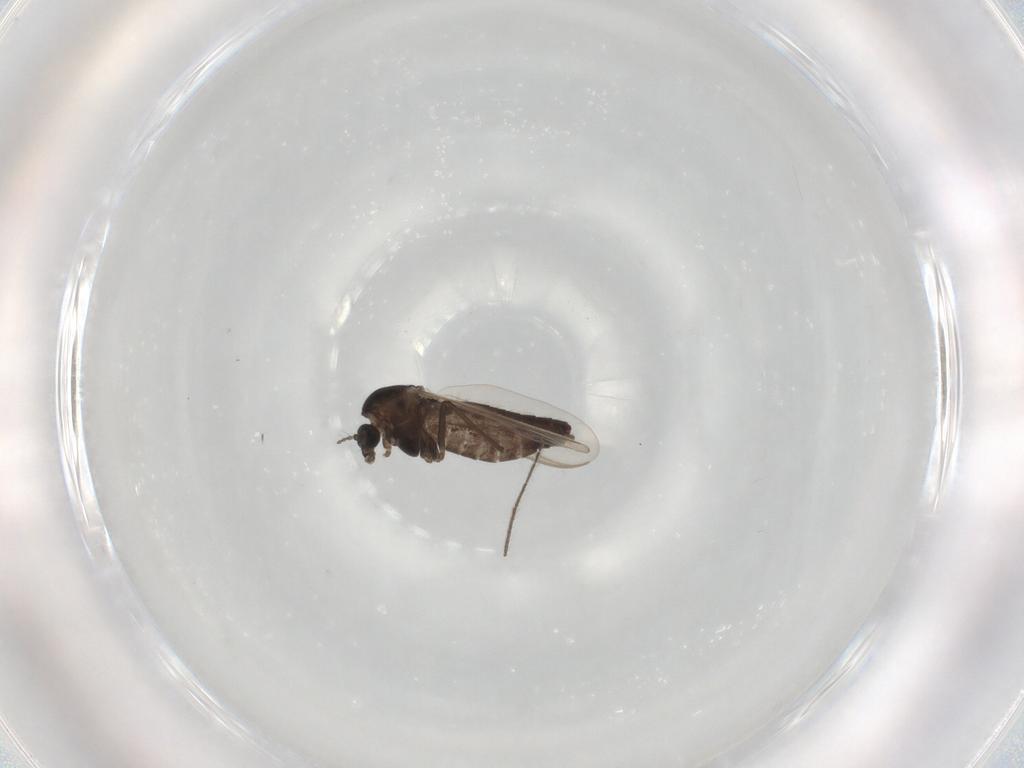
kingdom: Animalia
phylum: Arthropoda
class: Insecta
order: Diptera
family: Chironomidae
